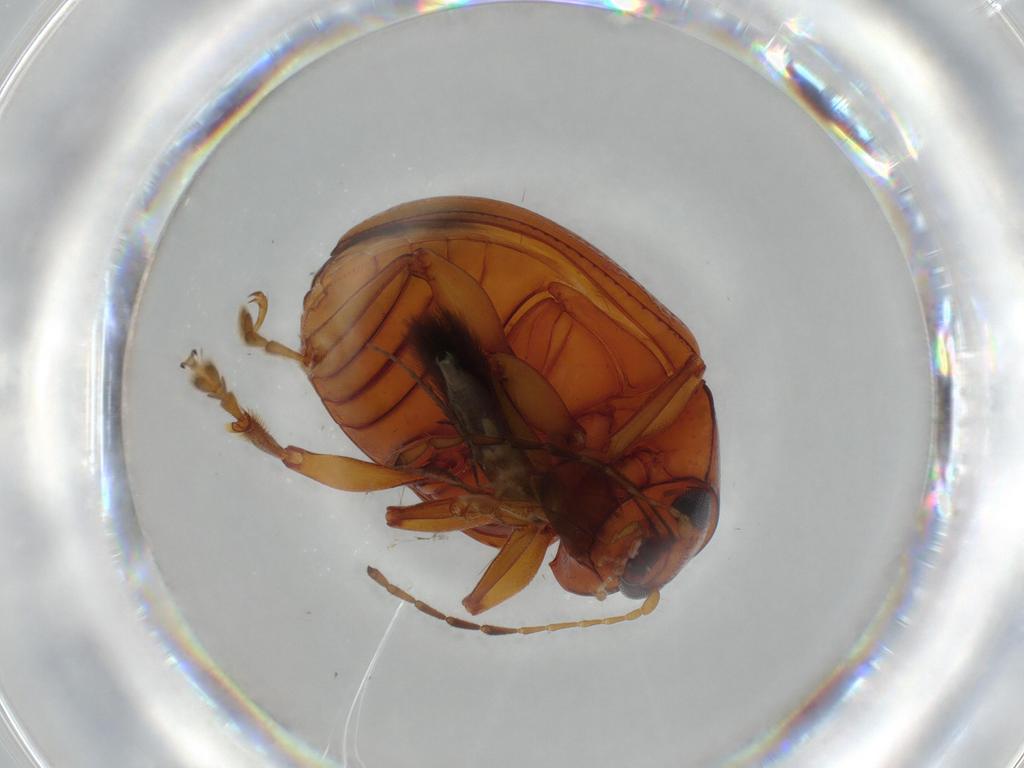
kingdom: Animalia
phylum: Arthropoda
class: Insecta
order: Coleoptera
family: Chrysomelidae
